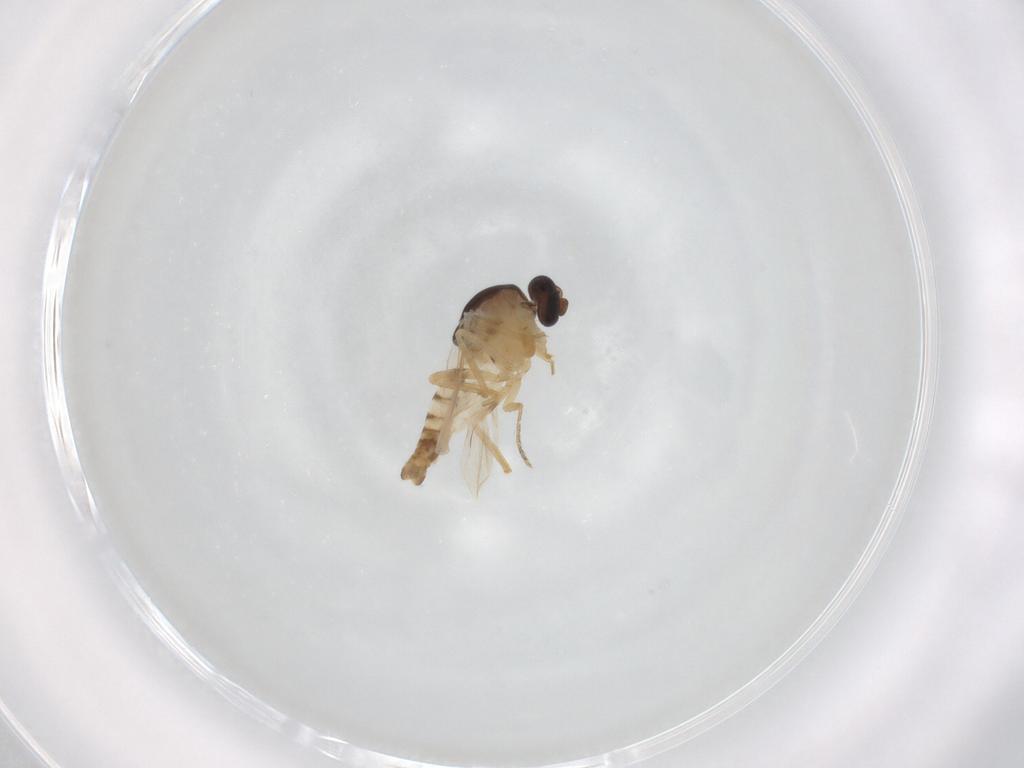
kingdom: Animalia
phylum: Arthropoda
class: Insecta
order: Diptera
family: Ceratopogonidae
